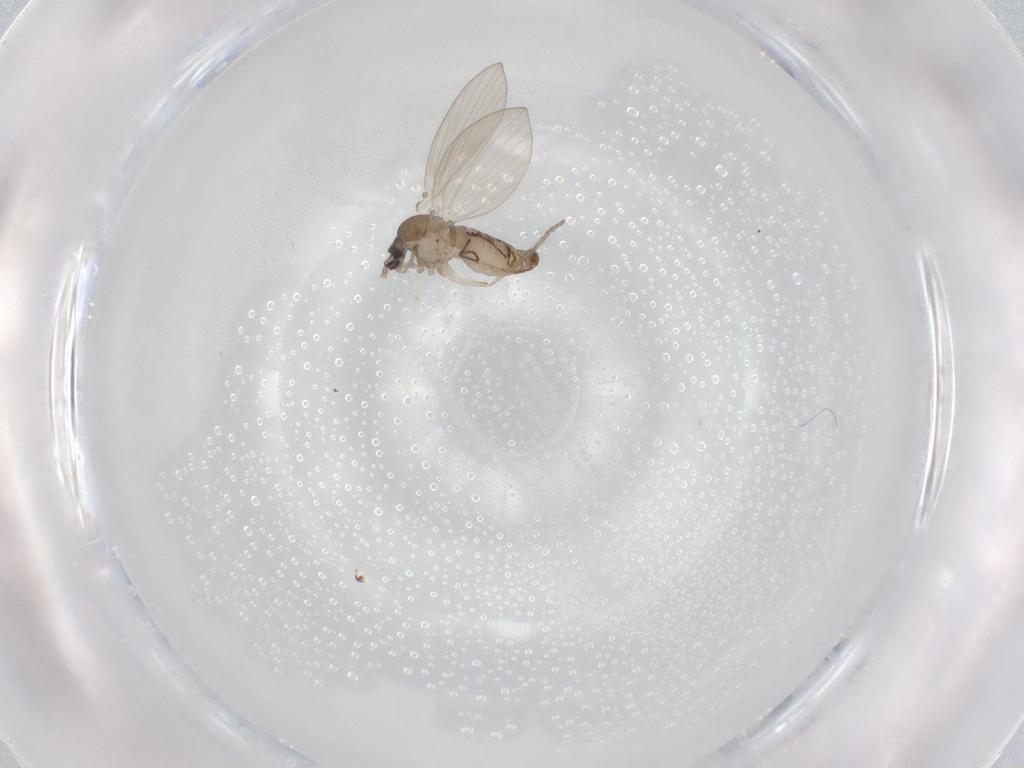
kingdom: Animalia
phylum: Arthropoda
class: Insecta
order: Diptera
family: Psychodidae
